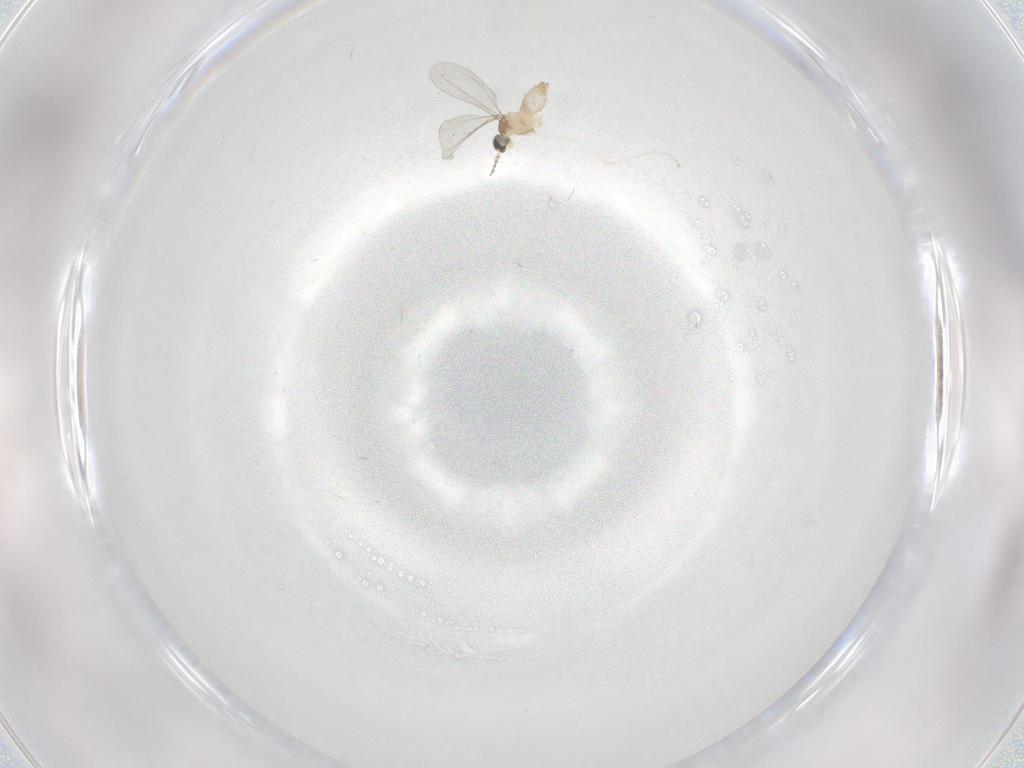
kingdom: Animalia
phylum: Arthropoda
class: Insecta
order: Diptera
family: Cecidomyiidae
